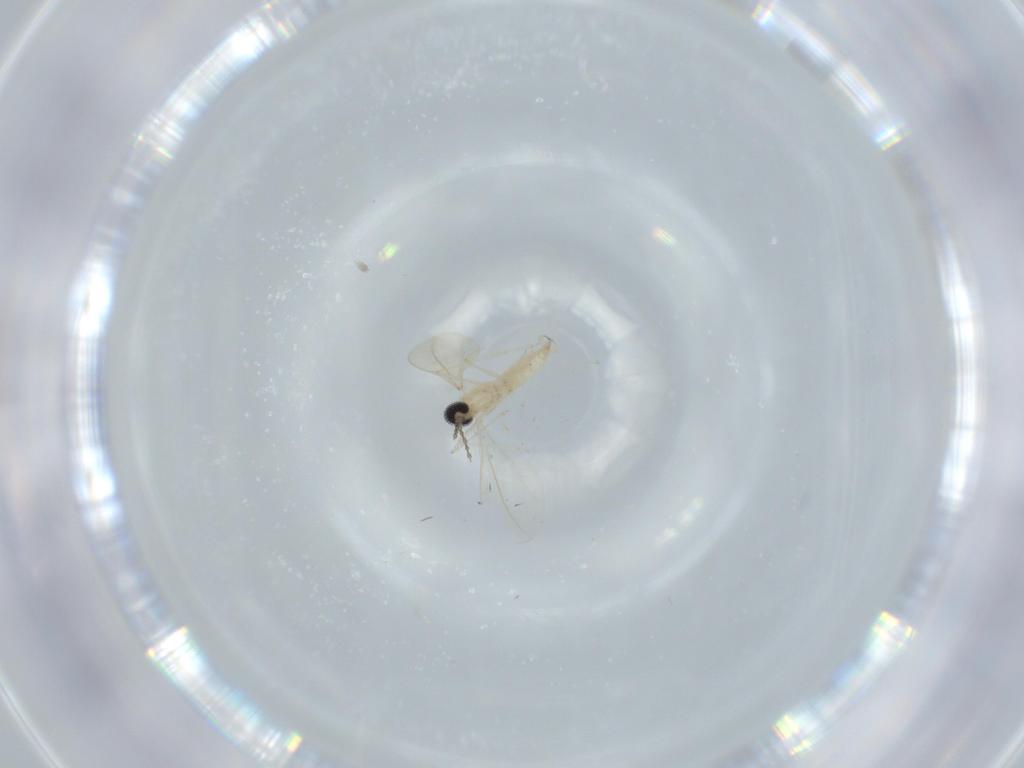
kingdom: Animalia
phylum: Arthropoda
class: Insecta
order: Diptera
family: Cecidomyiidae
